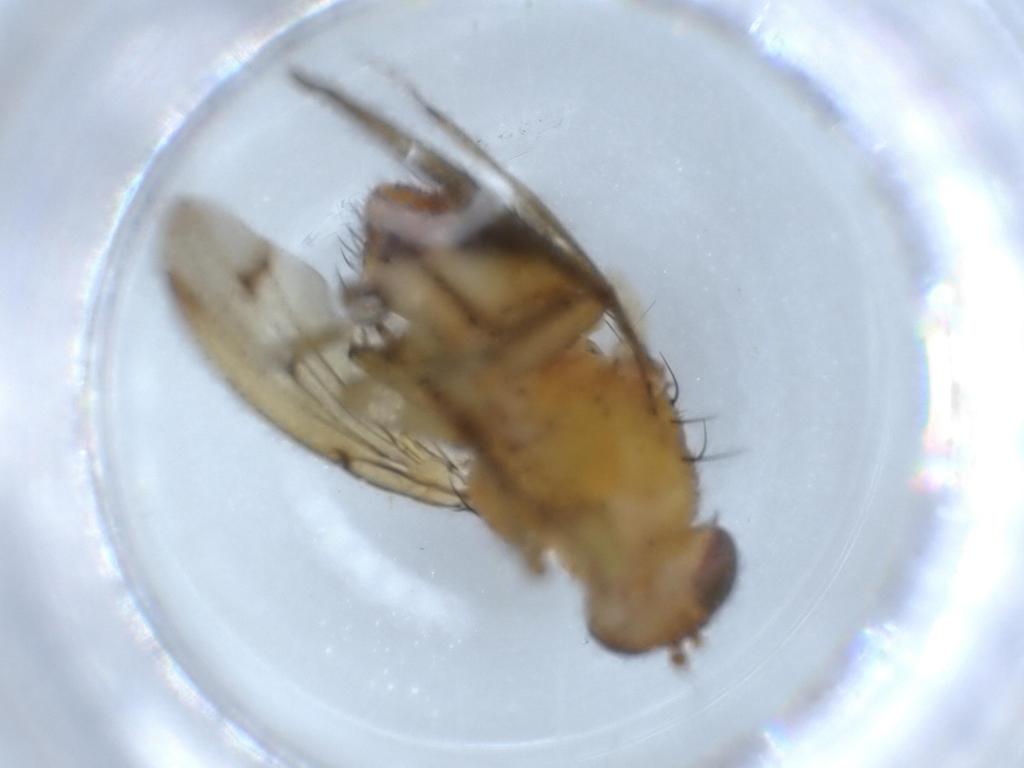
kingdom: Animalia
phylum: Arthropoda
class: Insecta
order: Diptera
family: Cecidomyiidae
